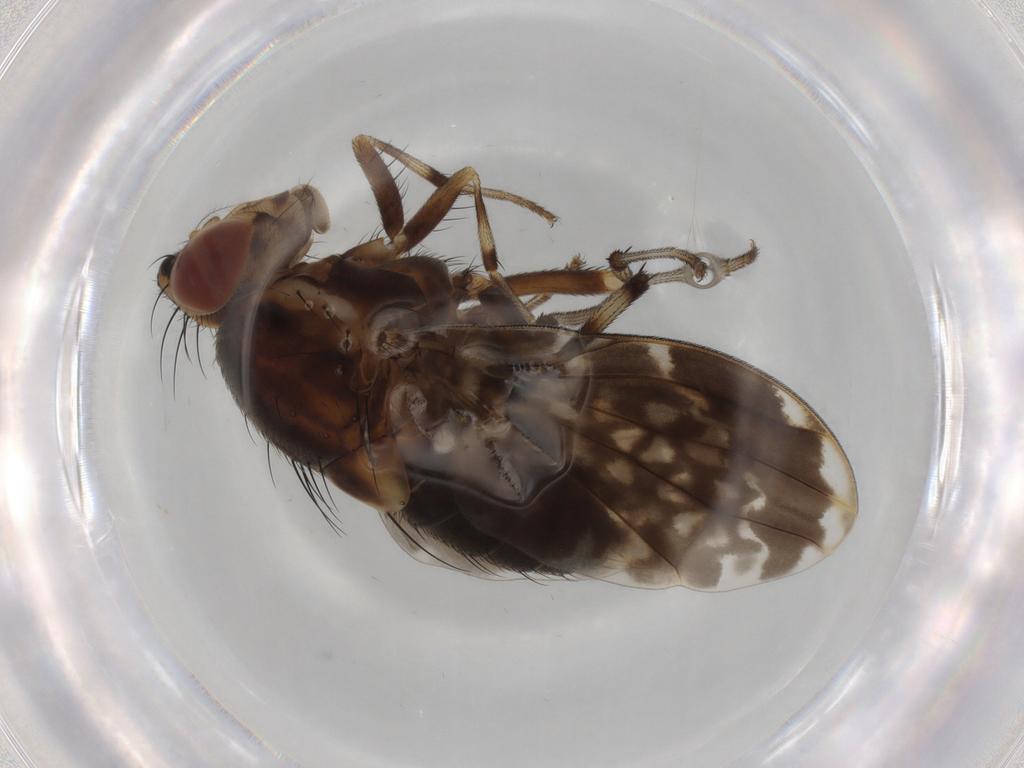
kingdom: Animalia
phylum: Arthropoda
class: Insecta
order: Diptera
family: Lauxaniidae
